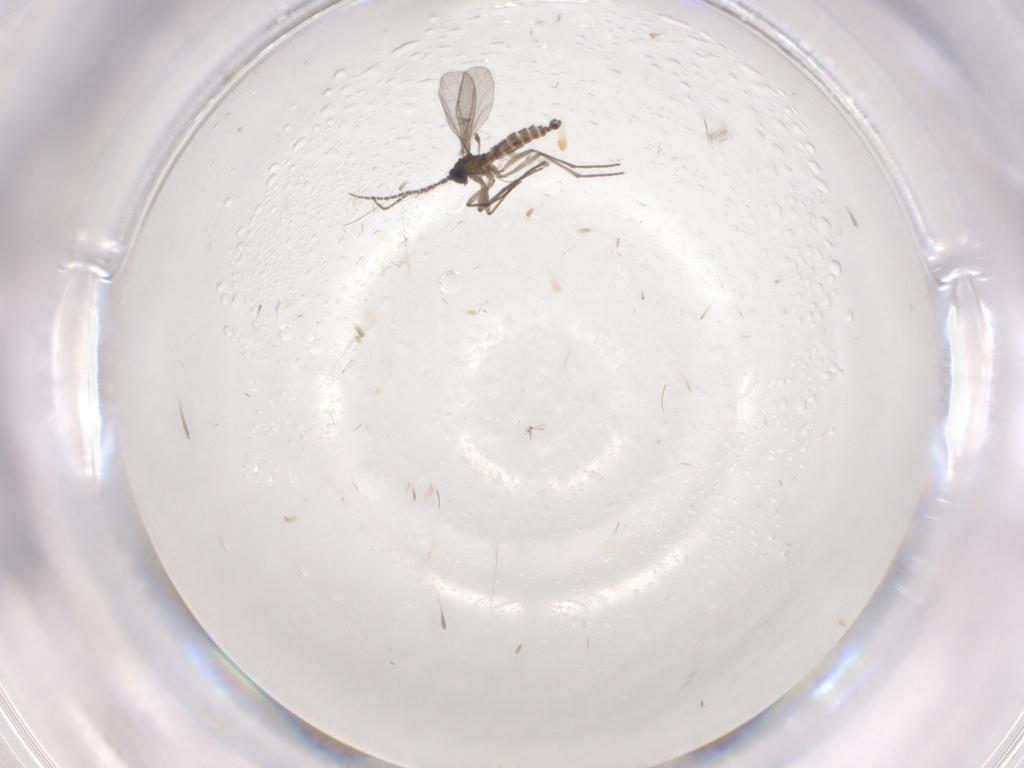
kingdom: Animalia
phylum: Arthropoda
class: Insecta
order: Diptera
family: Sciaridae
